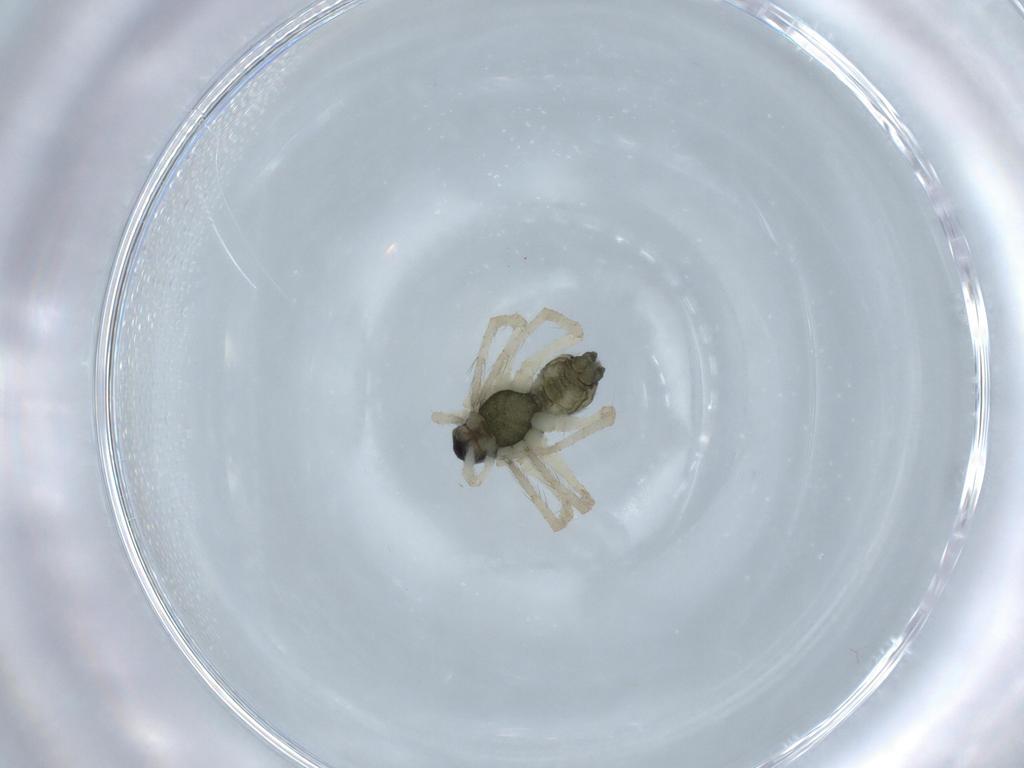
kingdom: Animalia
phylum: Arthropoda
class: Arachnida
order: Araneae
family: Lycosidae
